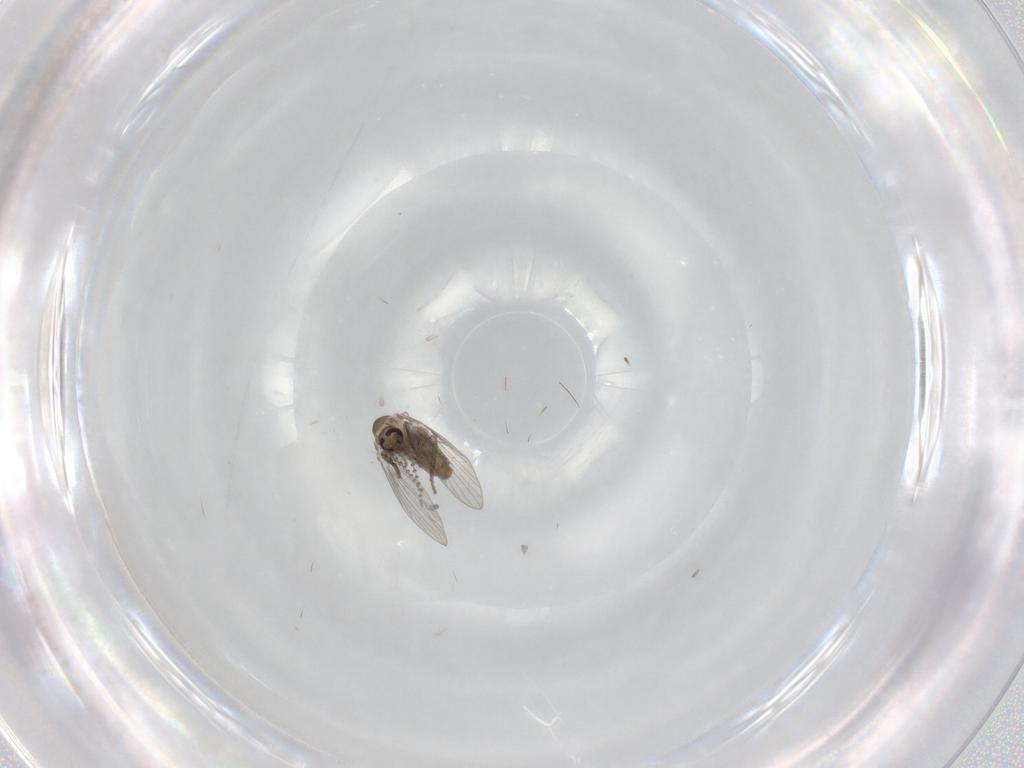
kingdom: Animalia
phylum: Arthropoda
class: Insecta
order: Diptera
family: Psychodidae
